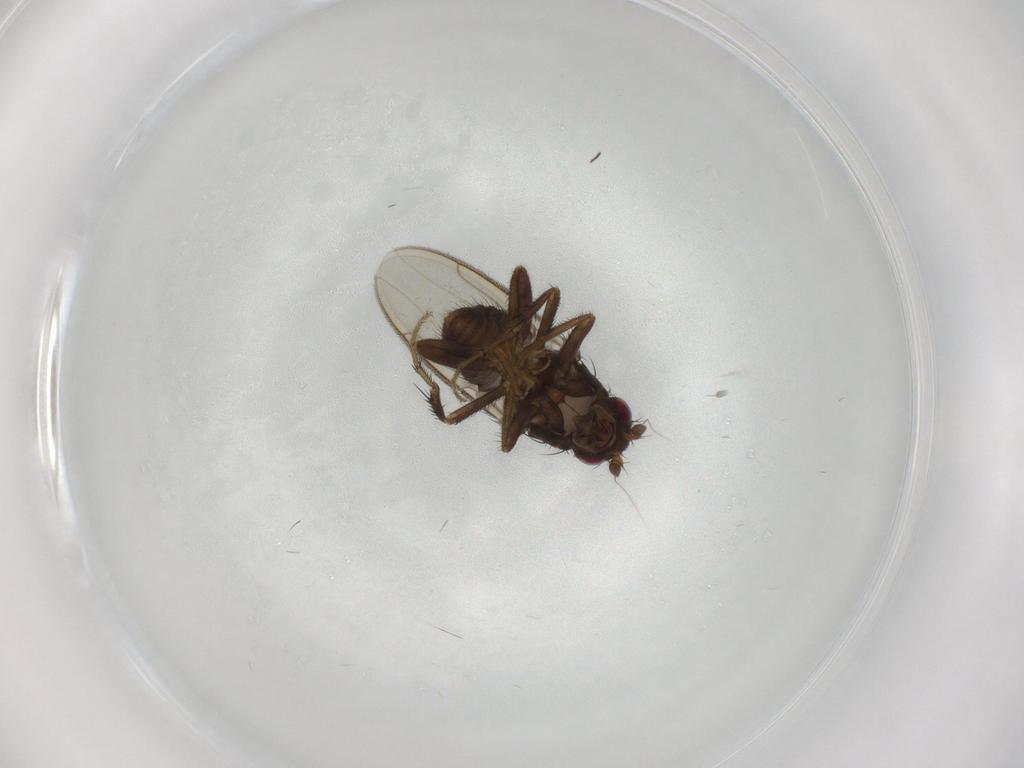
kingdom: Animalia
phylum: Arthropoda
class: Insecta
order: Diptera
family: Sphaeroceridae
